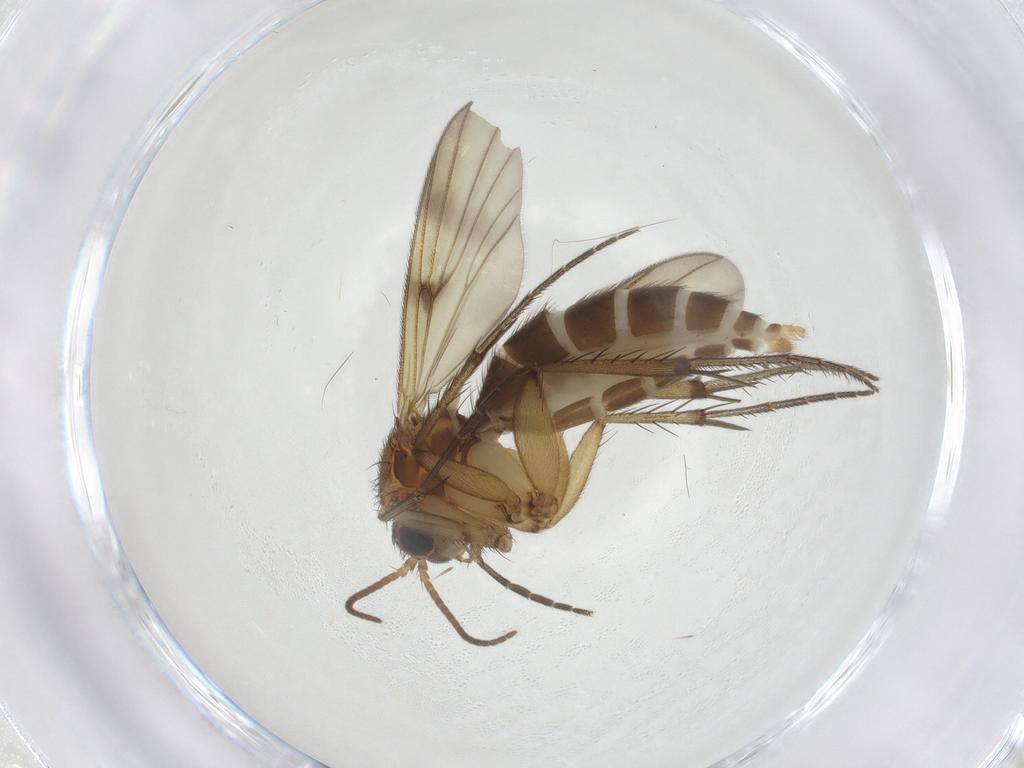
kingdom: Animalia
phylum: Arthropoda
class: Insecta
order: Diptera
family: Mycetophilidae
